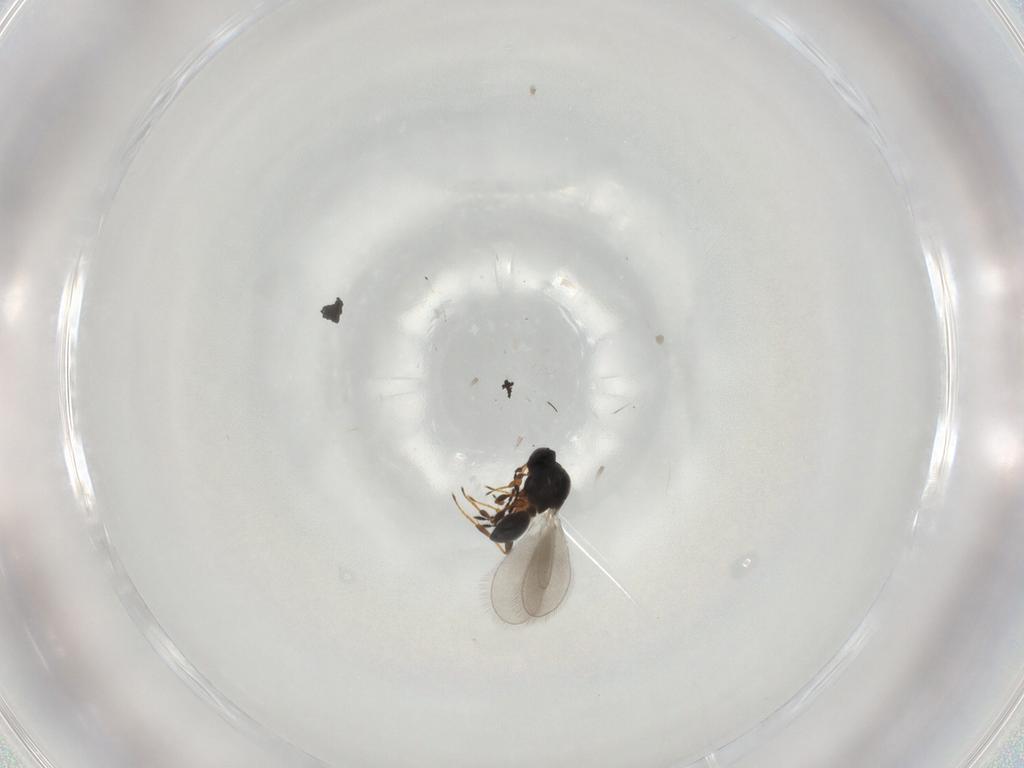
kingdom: Animalia
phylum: Arthropoda
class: Insecta
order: Hymenoptera
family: Platygastridae
